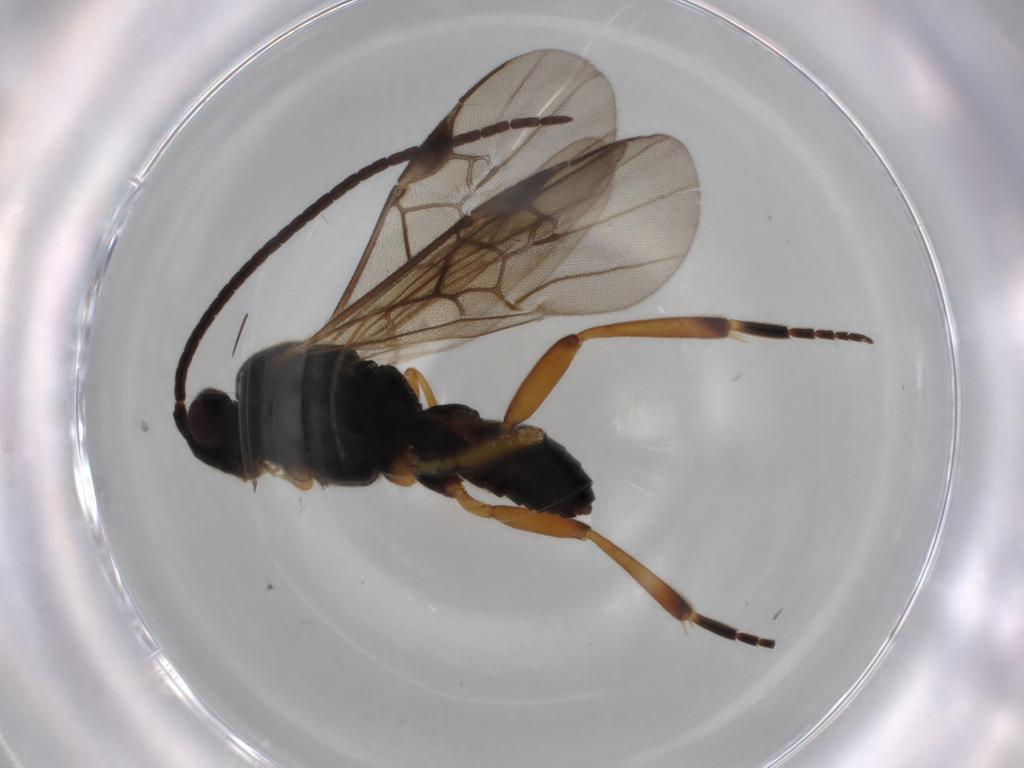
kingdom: Animalia
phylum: Arthropoda
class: Insecta
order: Hymenoptera
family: Braconidae
